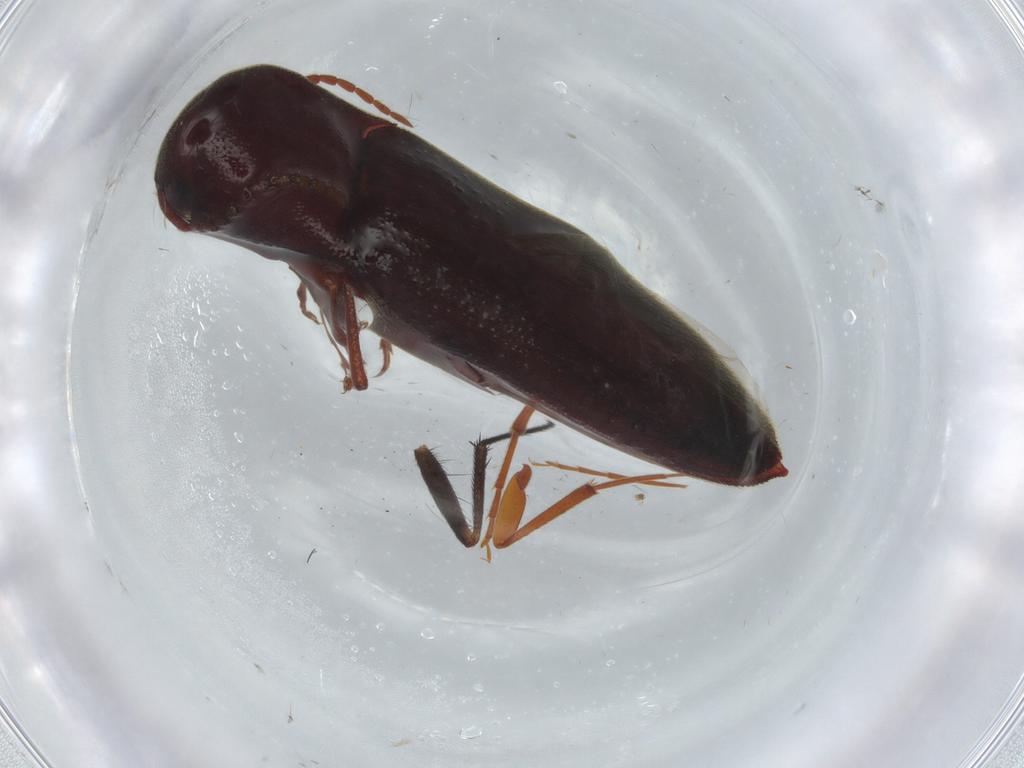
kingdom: Animalia
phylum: Arthropoda
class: Insecta
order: Coleoptera
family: Eucnemidae
